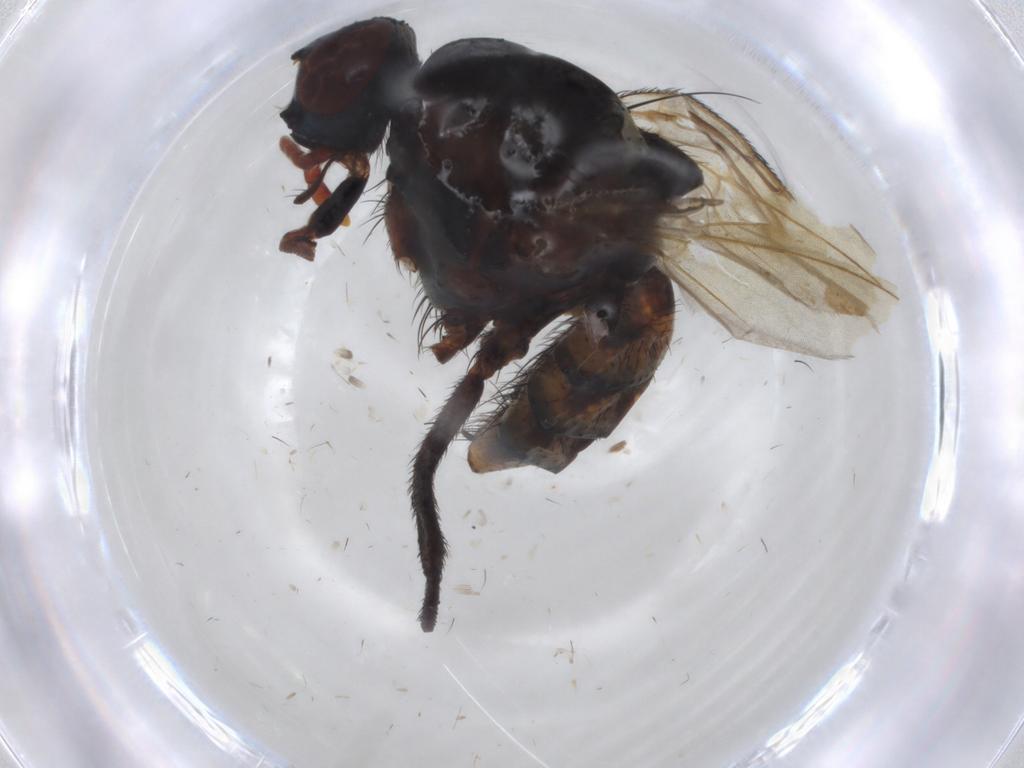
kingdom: Animalia
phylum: Arthropoda
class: Insecta
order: Diptera
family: Anthomyiidae
